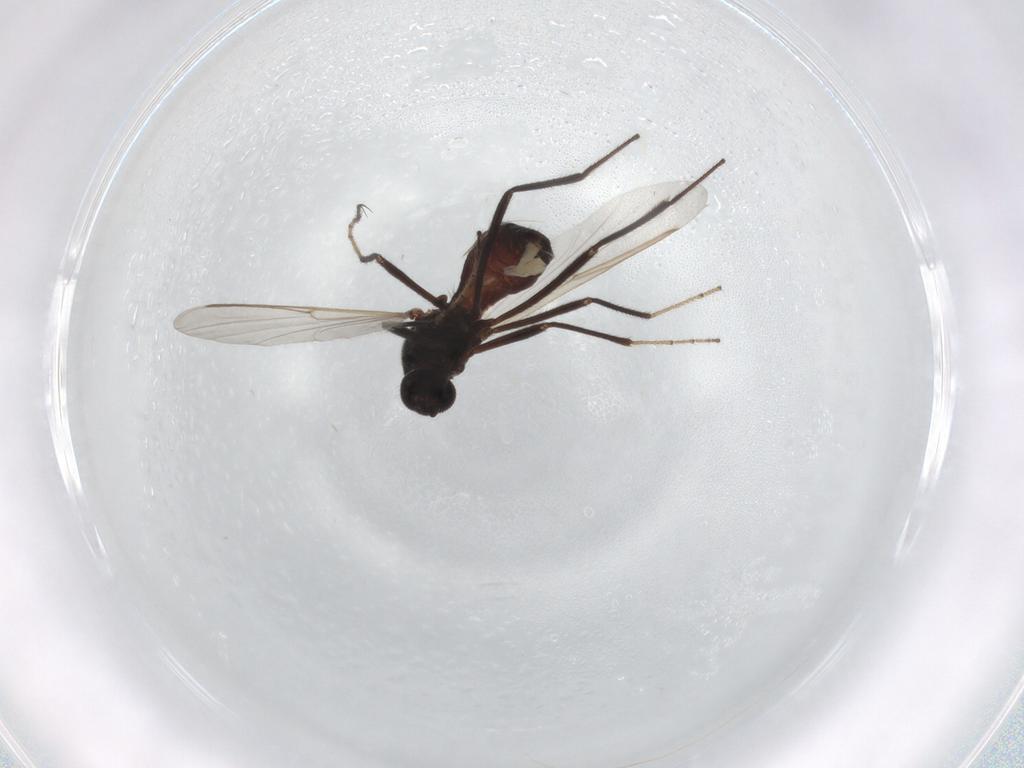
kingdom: Animalia
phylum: Arthropoda
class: Insecta
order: Diptera
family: Ceratopogonidae
